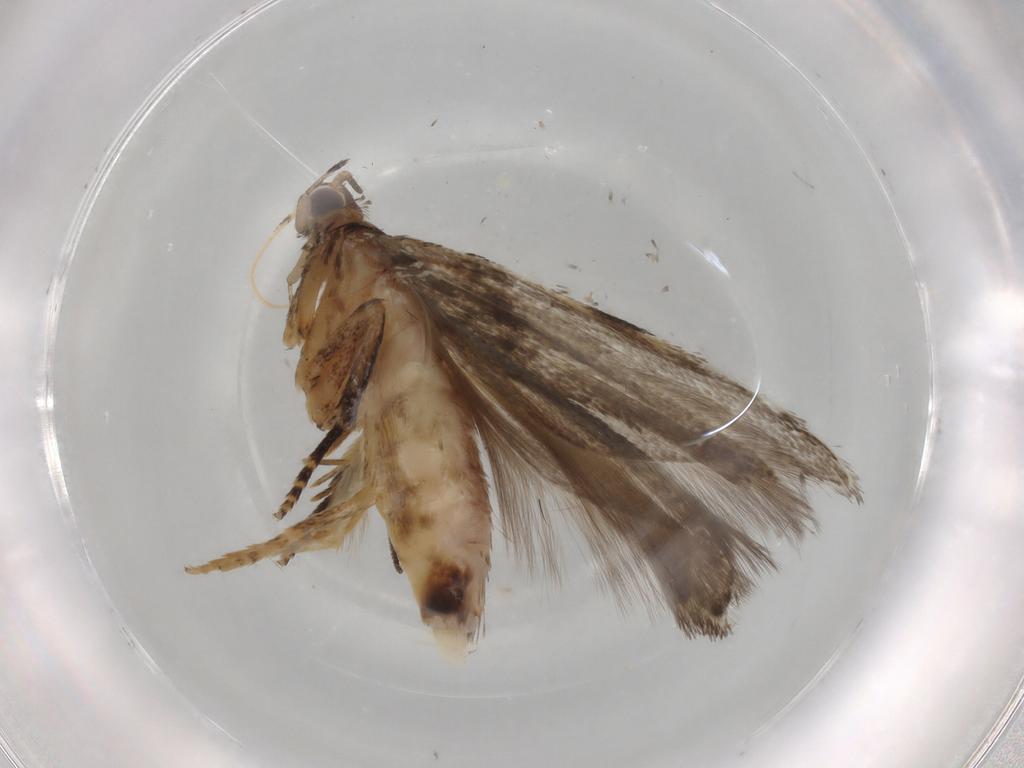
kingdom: Animalia
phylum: Arthropoda
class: Insecta
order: Lepidoptera
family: Gelechiidae
